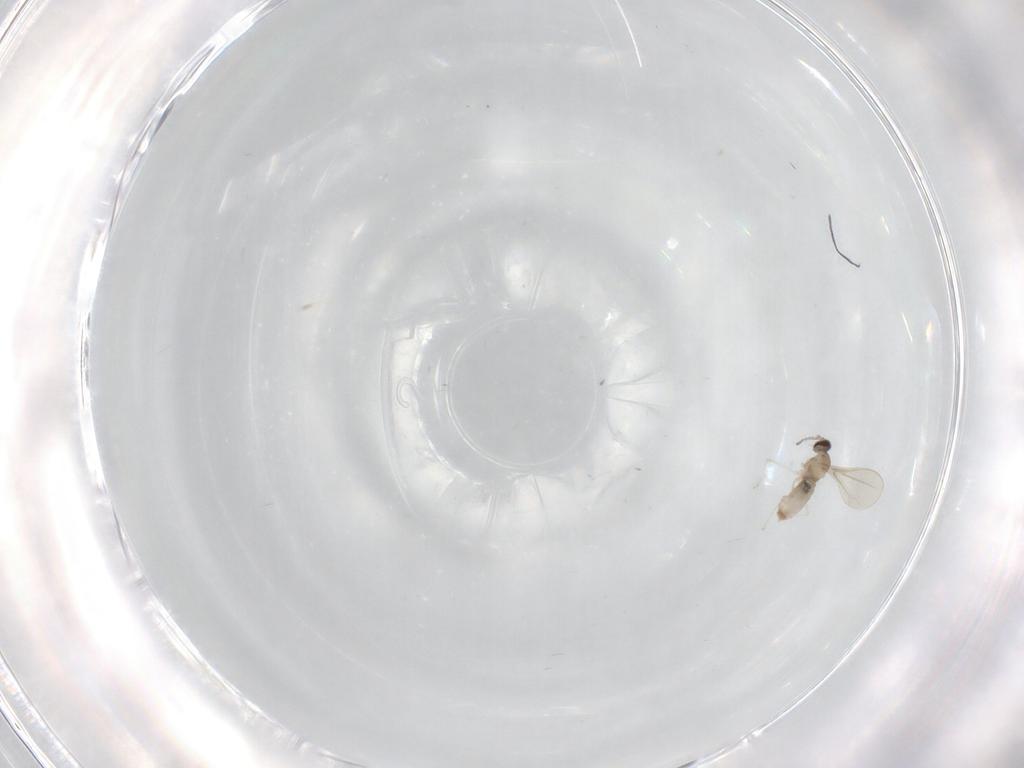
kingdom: Animalia
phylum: Arthropoda
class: Insecta
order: Diptera
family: Cecidomyiidae
